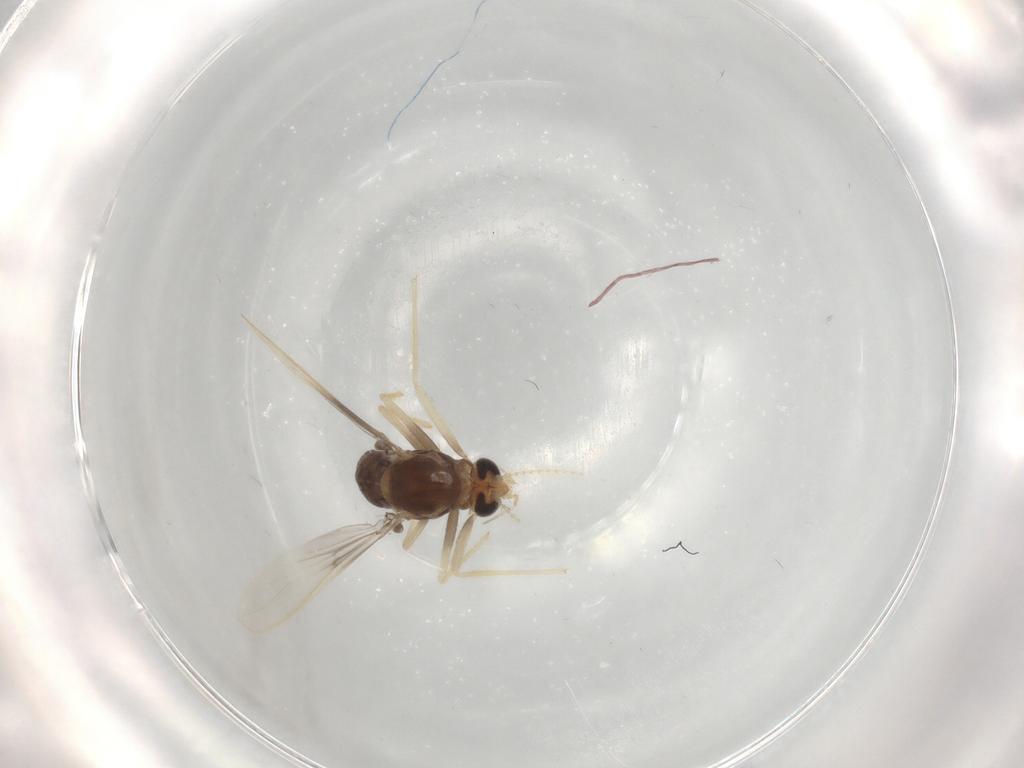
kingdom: Animalia
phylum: Arthropoda
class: Insecta
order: Diptera
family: Chironomidae
